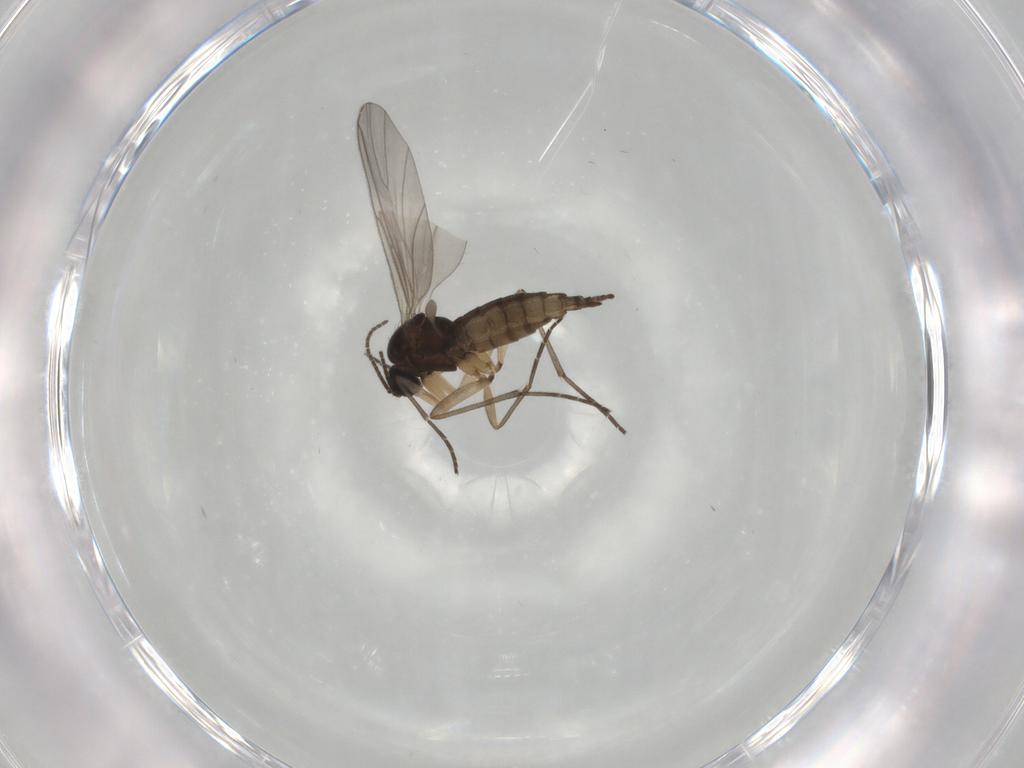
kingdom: Animalia
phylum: Arthropoda
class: Insecta
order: Diptera
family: Sciaridae
